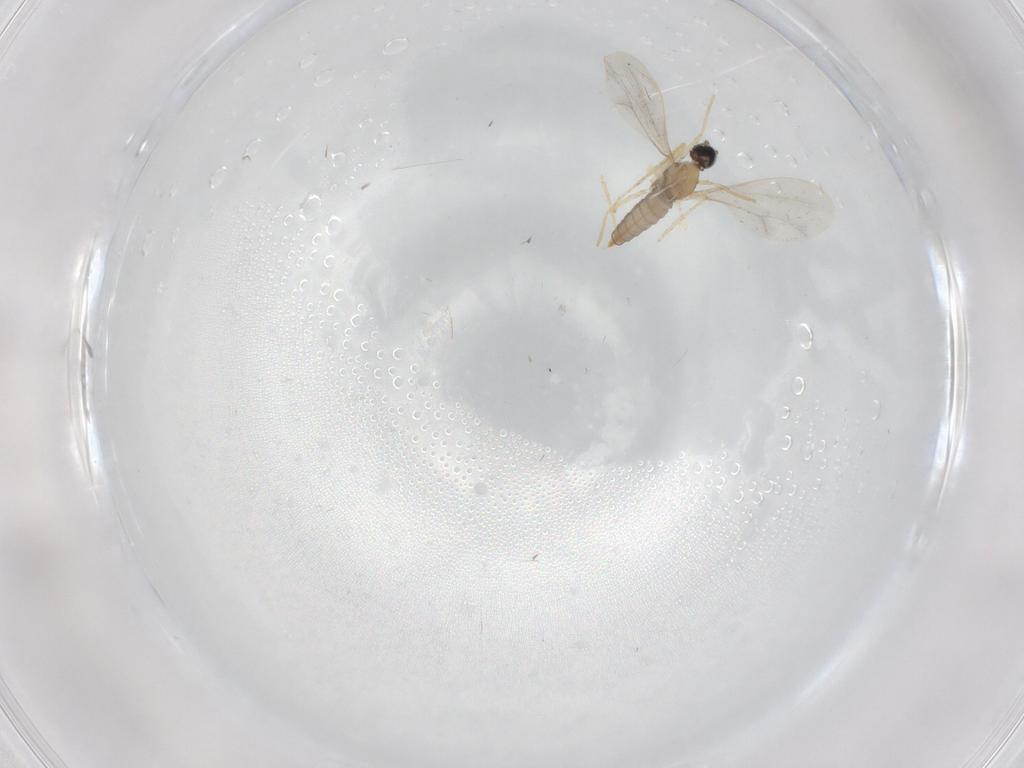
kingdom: Animalia
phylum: Arthropoda
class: Insecta
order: Diptera
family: Cecidomyiidae
